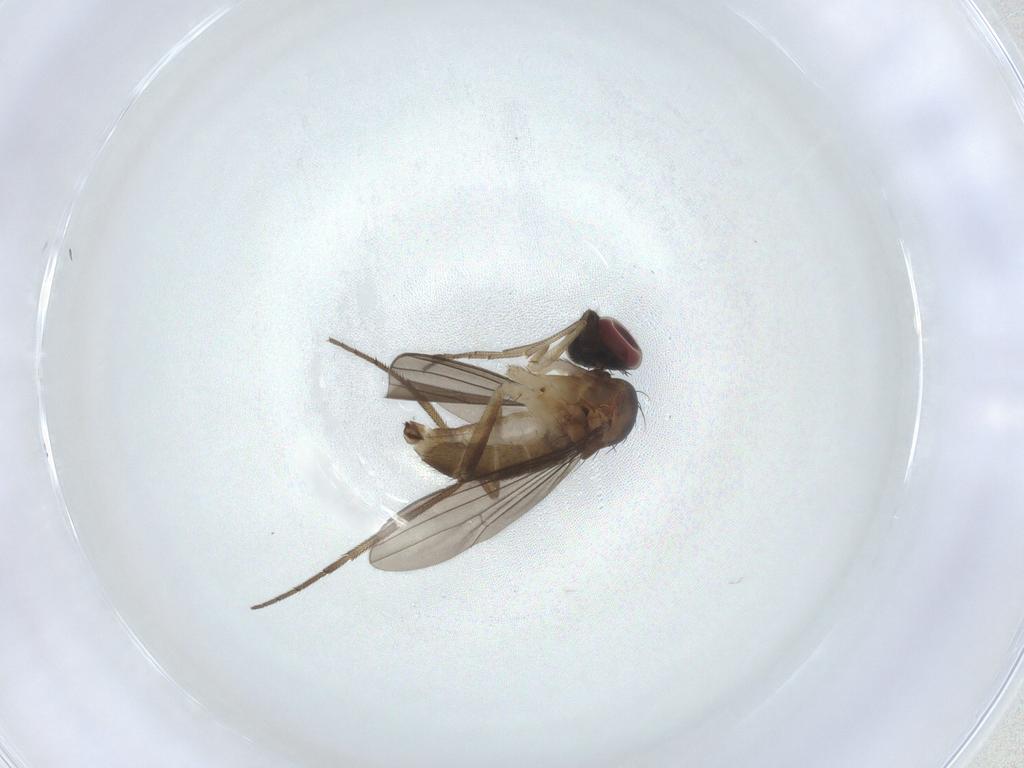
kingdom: Animalia
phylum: Arthropoda
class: Insecta
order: Diptera
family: Dolichopodidae
